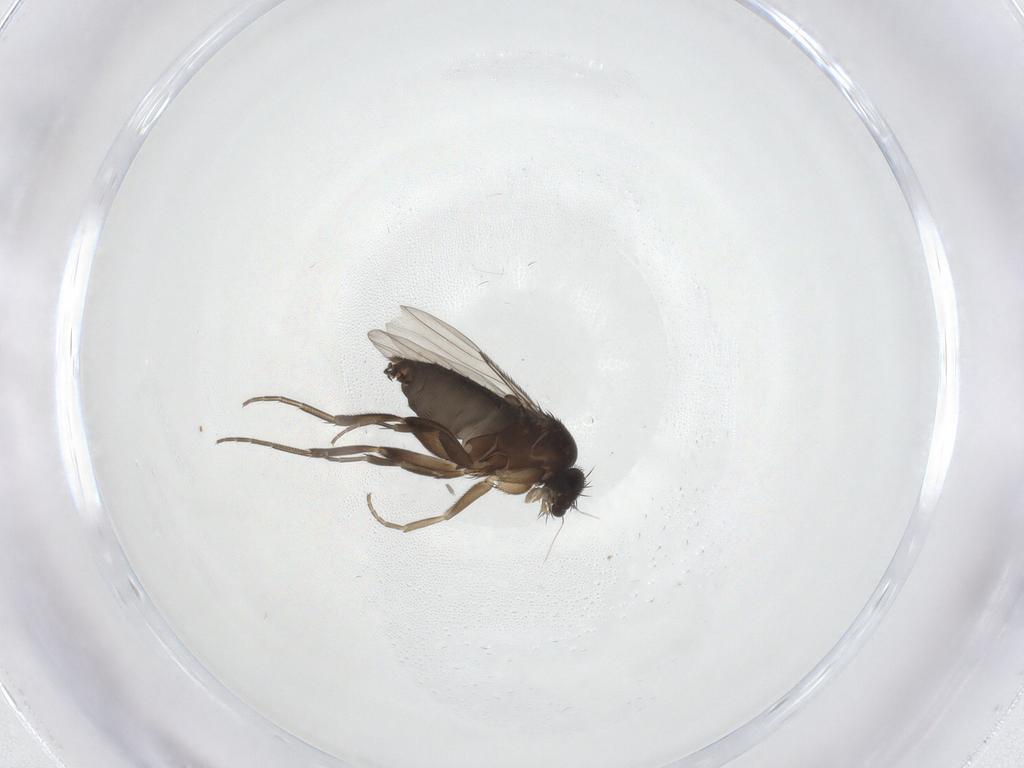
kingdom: Animalia
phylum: Arthropoda
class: Insecta
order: Diptera
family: Phoridae
